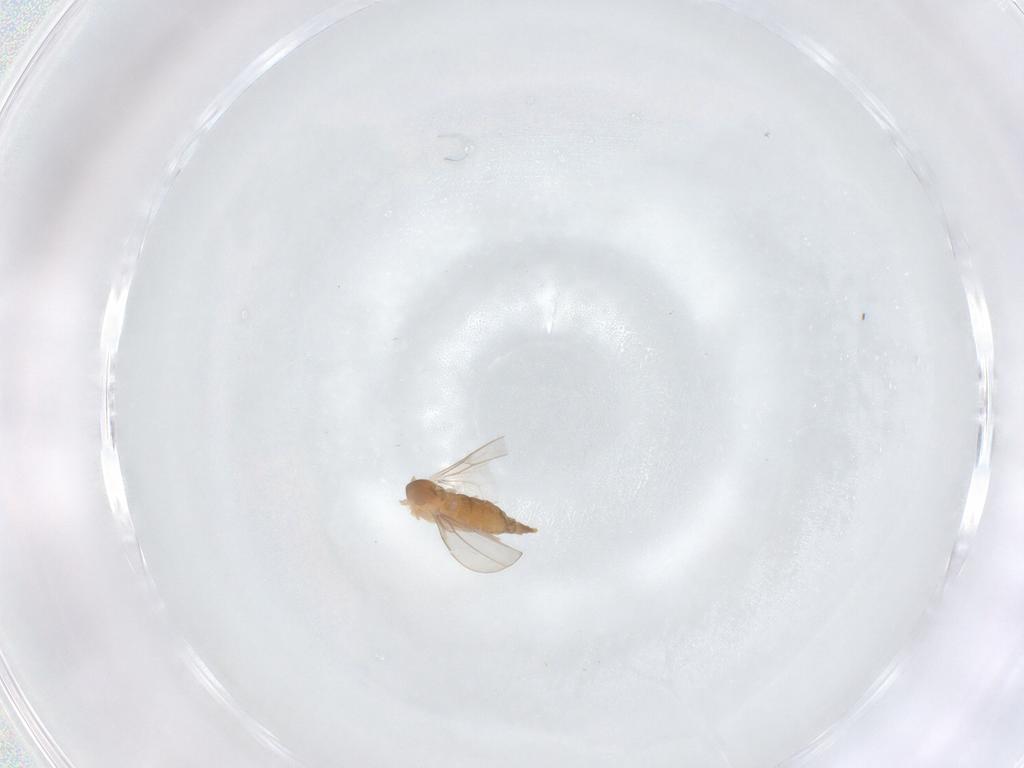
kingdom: Animalia
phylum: Arthropoda
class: Insecta
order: Diptera
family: Cecidomyiidae
